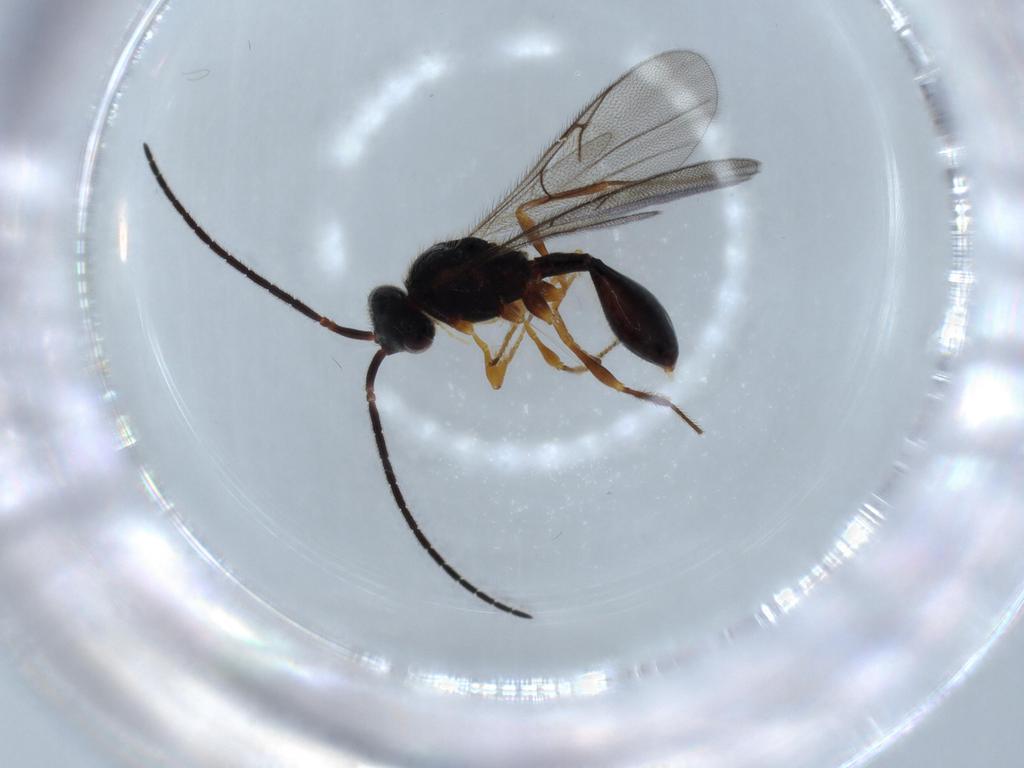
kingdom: Animalia
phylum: Arthropoda
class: Insecta
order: Hymenoptera
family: Diapriidae
